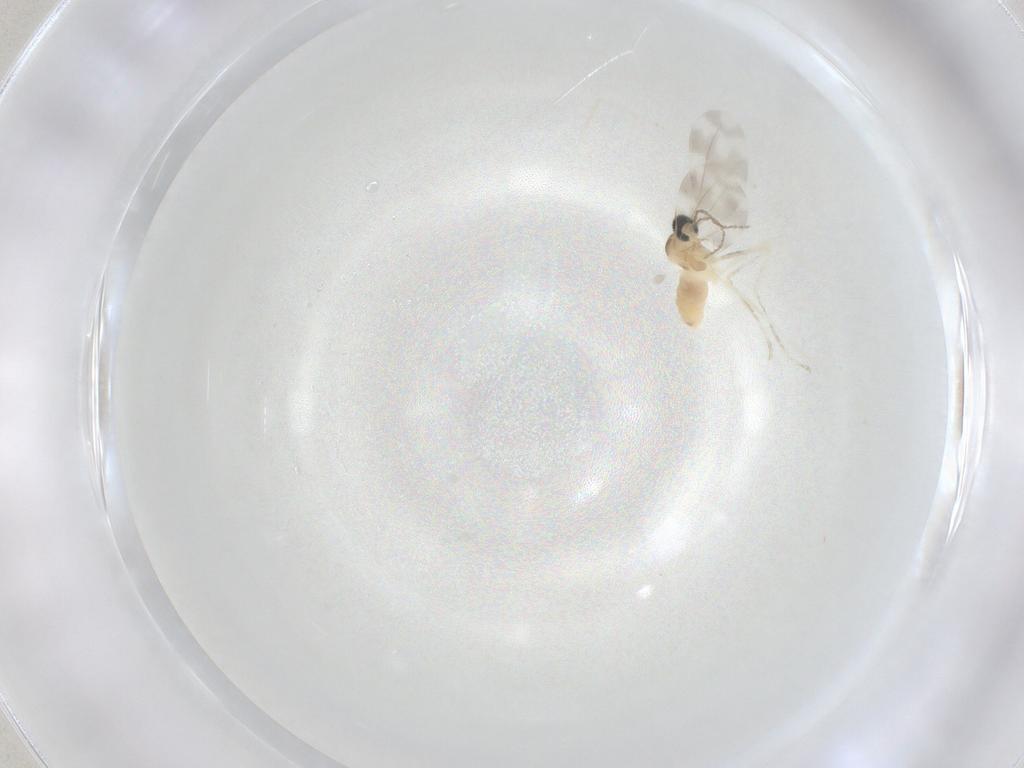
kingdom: Animalia
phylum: Arthropoda
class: Insecta
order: Diptera
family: Cecidomyiidae
